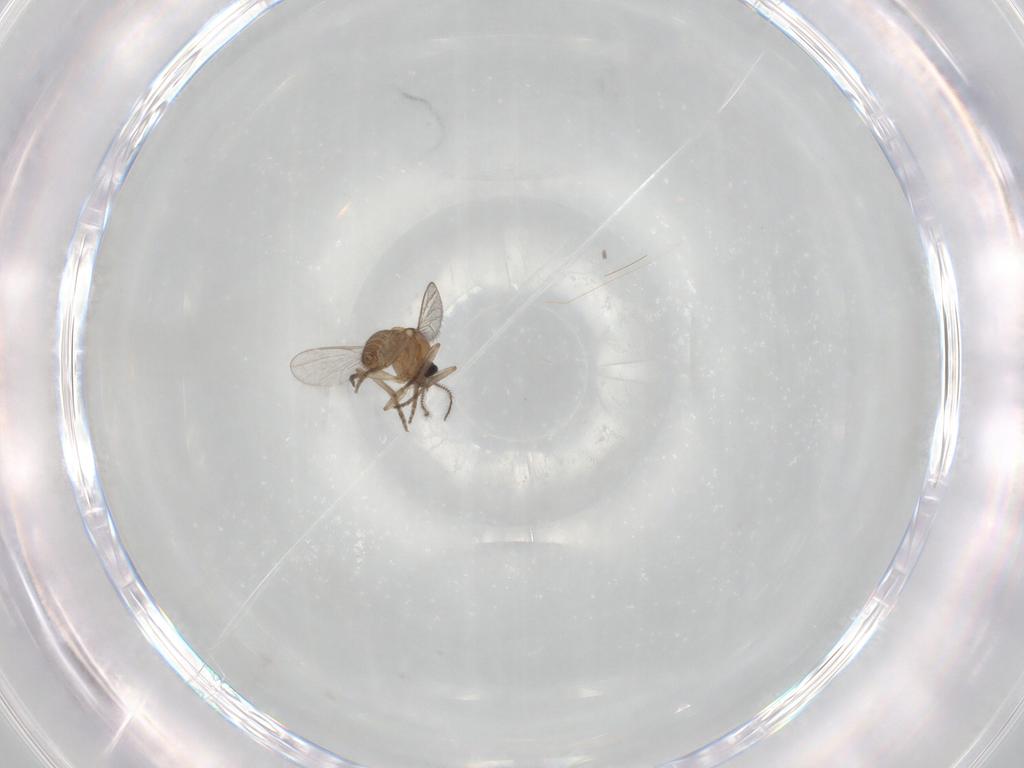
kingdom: Animalia
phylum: Arthropoda
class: Insecta
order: Diptera
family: Ceratopogonidae
